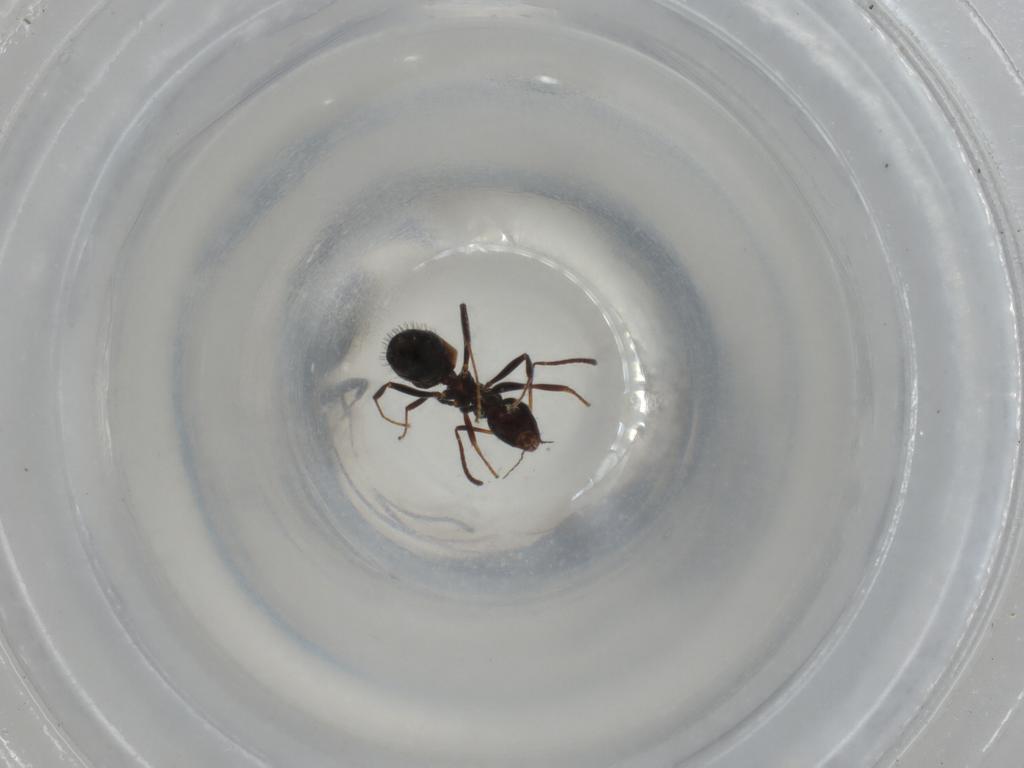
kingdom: Animalia
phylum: Arthropoda
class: Insecta
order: Hymenoptera
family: Formicidae
